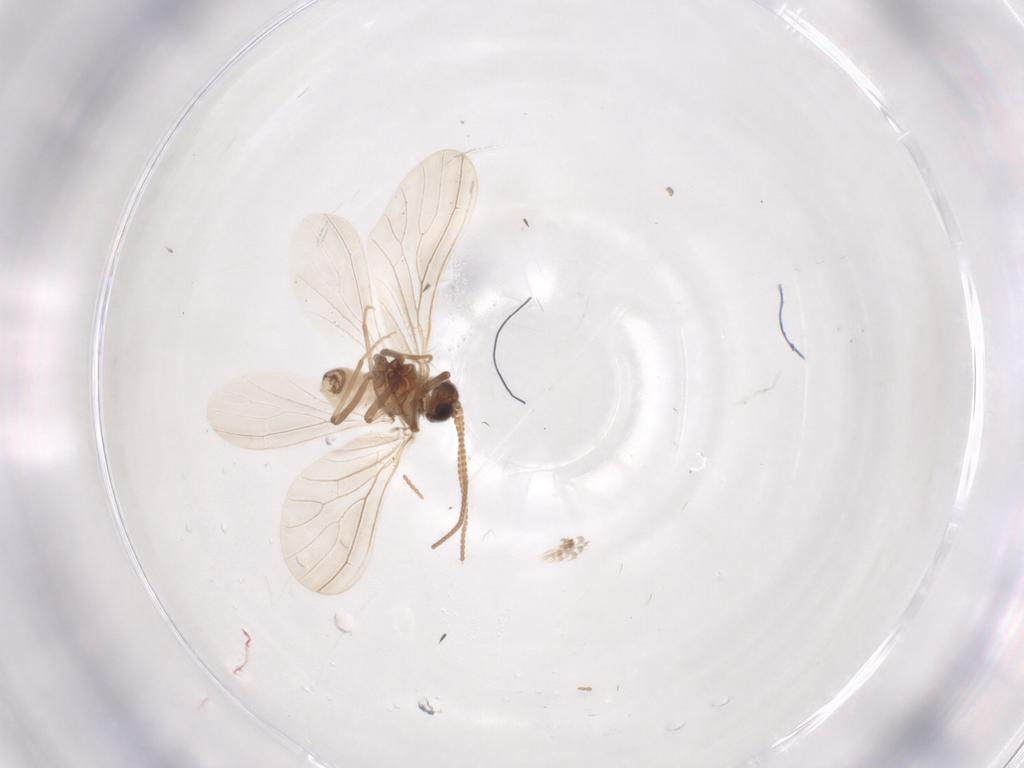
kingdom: Animalia
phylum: Arthropoda
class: Insecta
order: Neuroptera
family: Coniopterygidae
